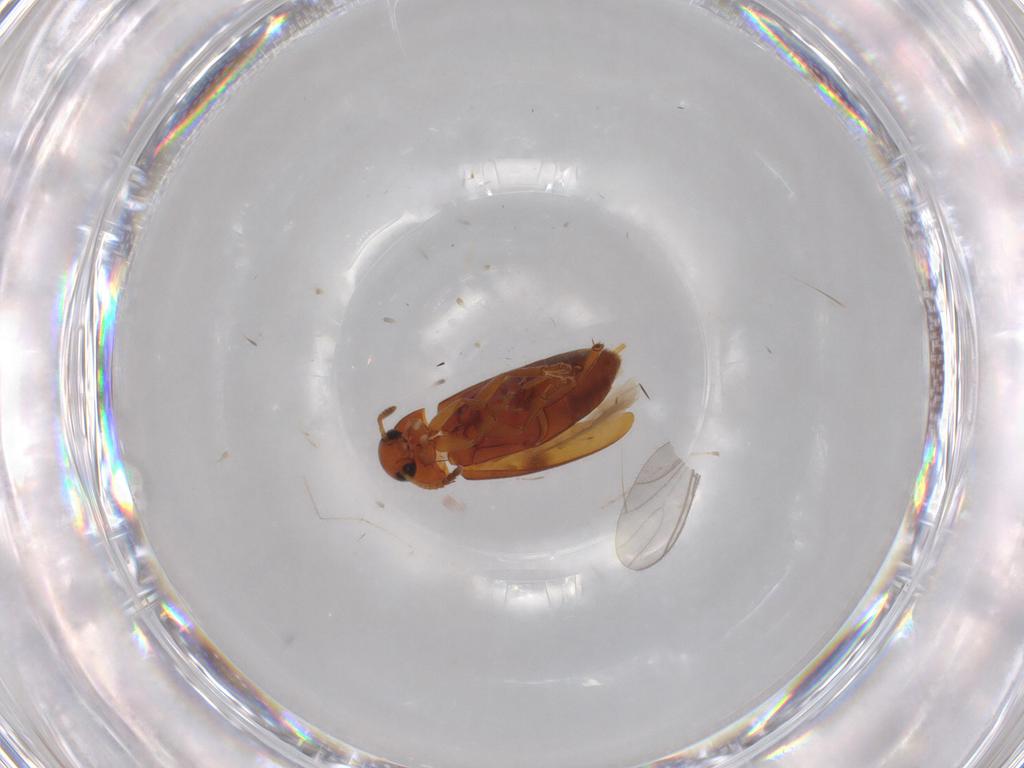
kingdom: Animalia
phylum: Arthropoda
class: Insecta
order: Coleoptera
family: Scraptiidae
